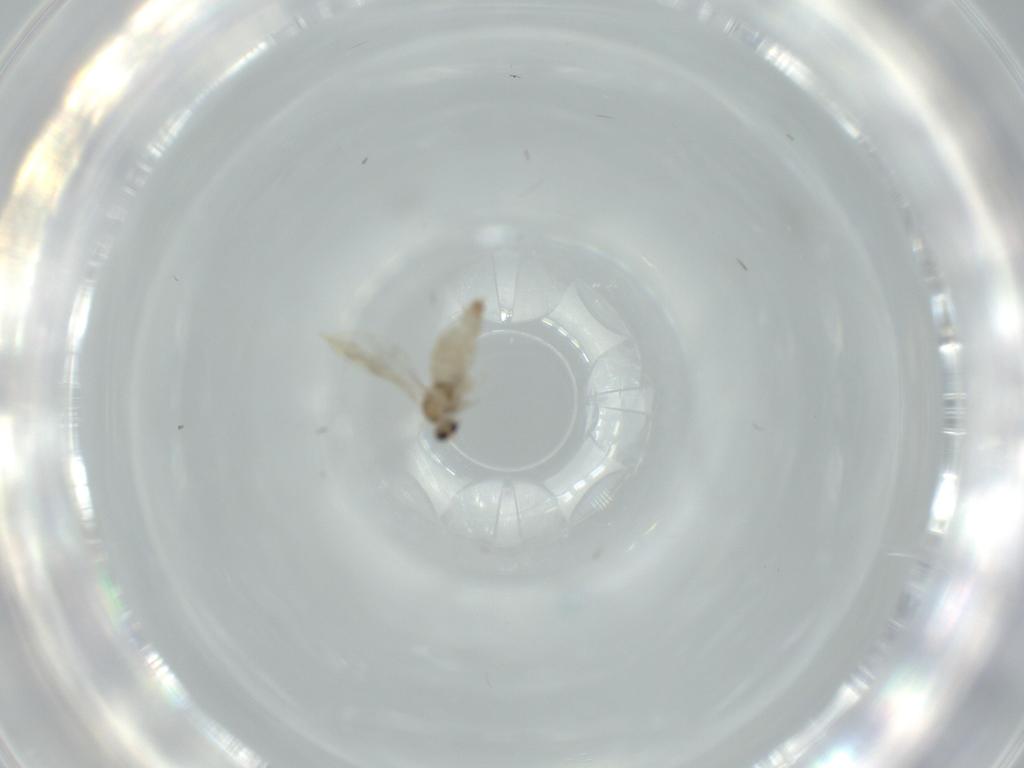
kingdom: Animalia
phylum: Arthropoda
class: Insecta
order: Diptera
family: Cecidomyiidae
